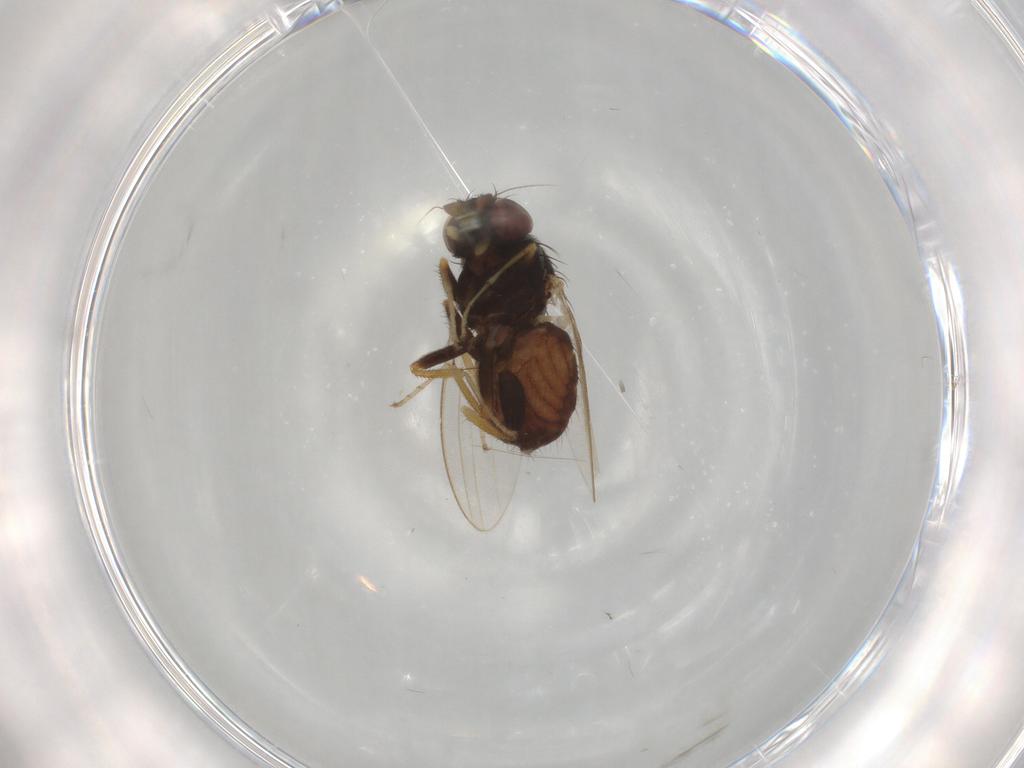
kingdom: Animalia
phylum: Arthropoda
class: Insecta
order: Diptera
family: Milichiidae
